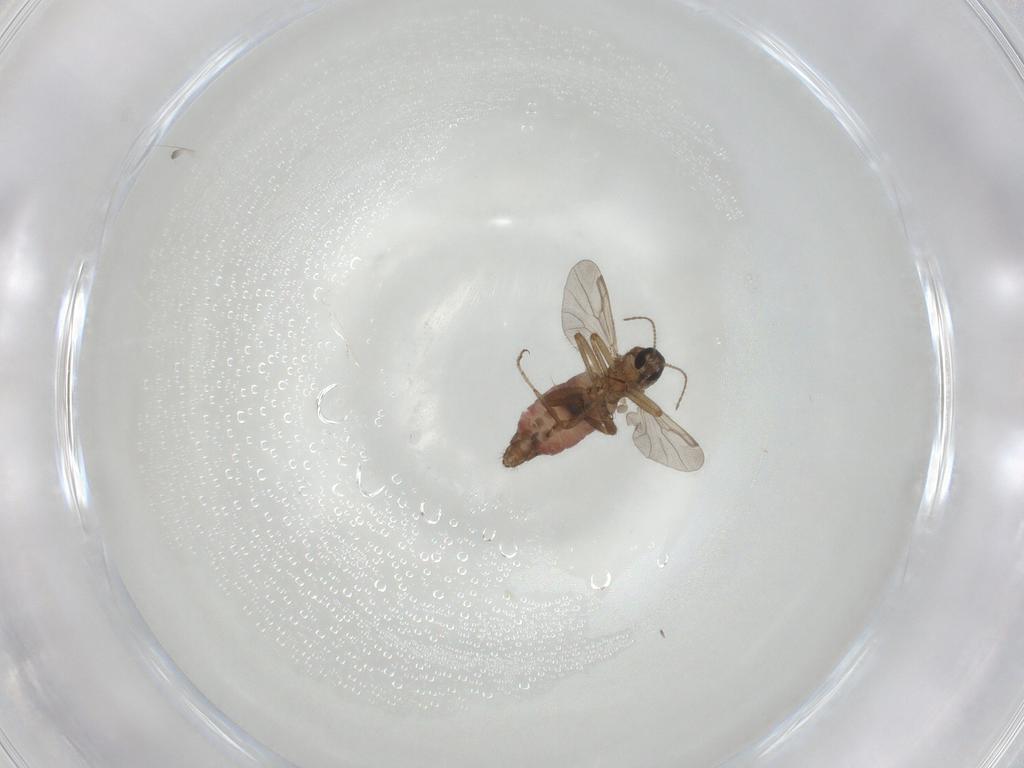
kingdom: Animalia
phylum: Arthropoda
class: Insecta
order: Diptera
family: Ceratopogonidae
